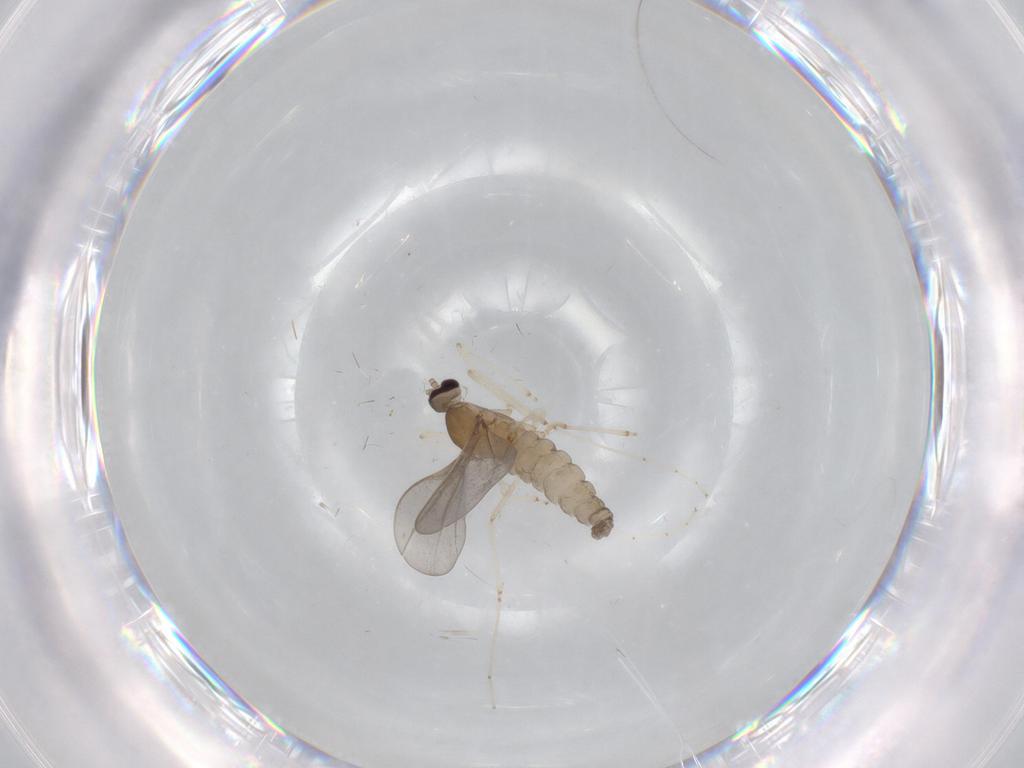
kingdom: Animalia
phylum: Arthropoda
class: Insecta
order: Diptera
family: Cecidomyiidae
